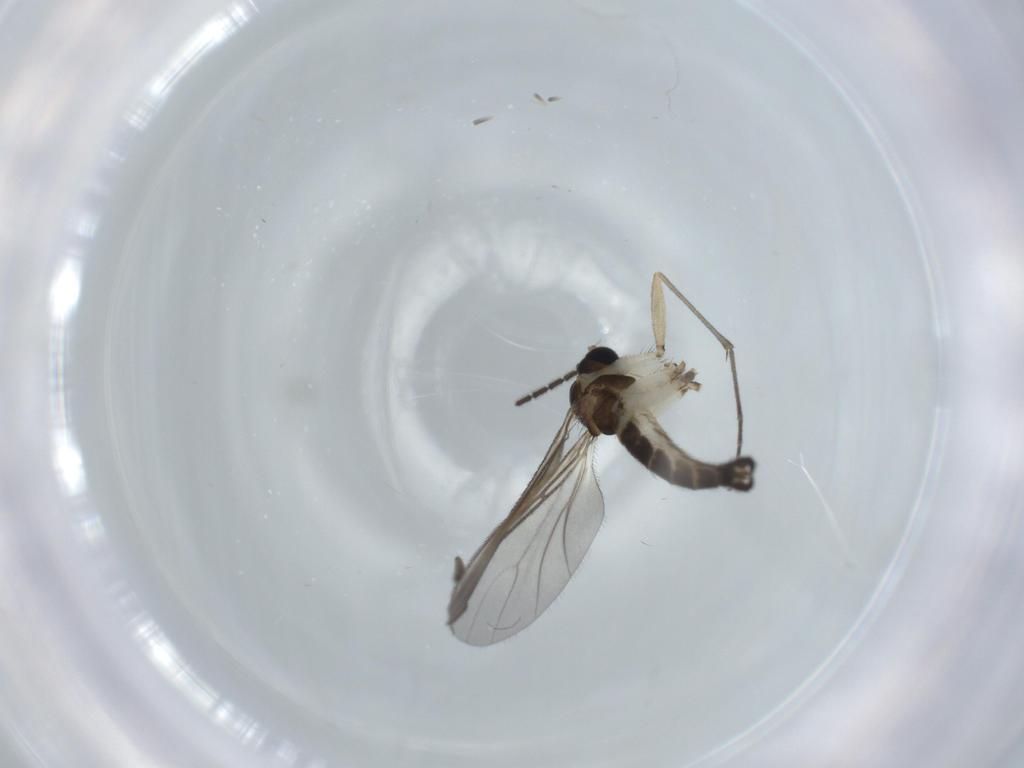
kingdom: Animalia
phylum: Arthropoda
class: Insecta
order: Diptera
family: Sciaridae
